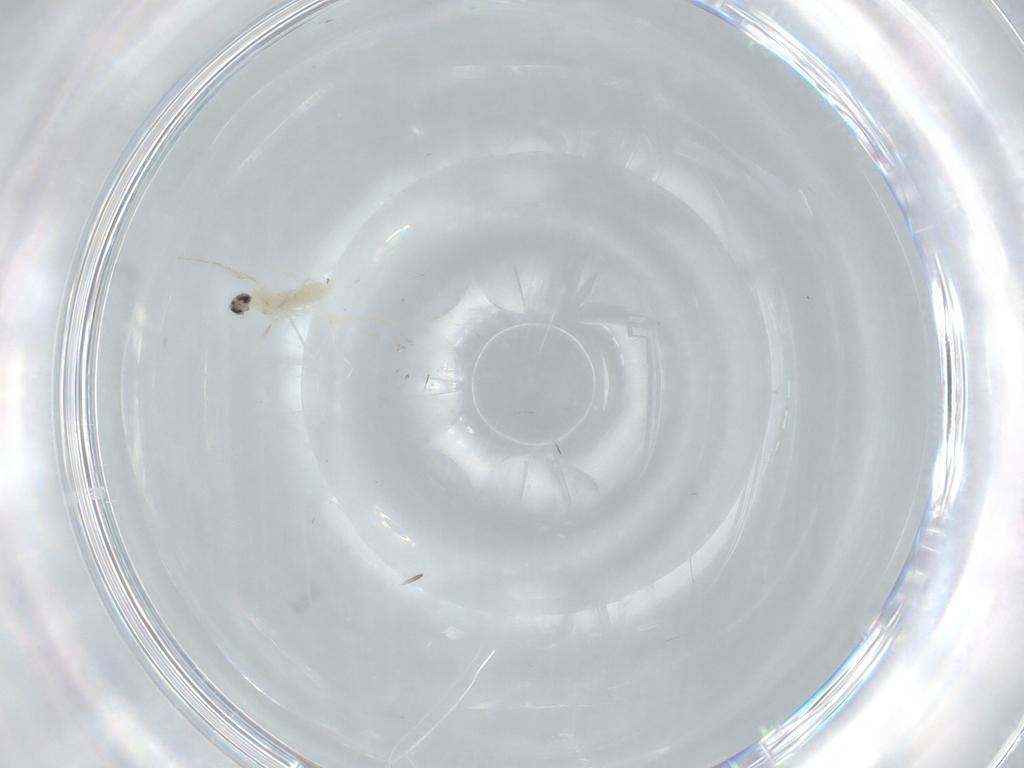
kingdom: Animalia
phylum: Arthropoda
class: Insecta
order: Diptera
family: Cecidomyiidae
